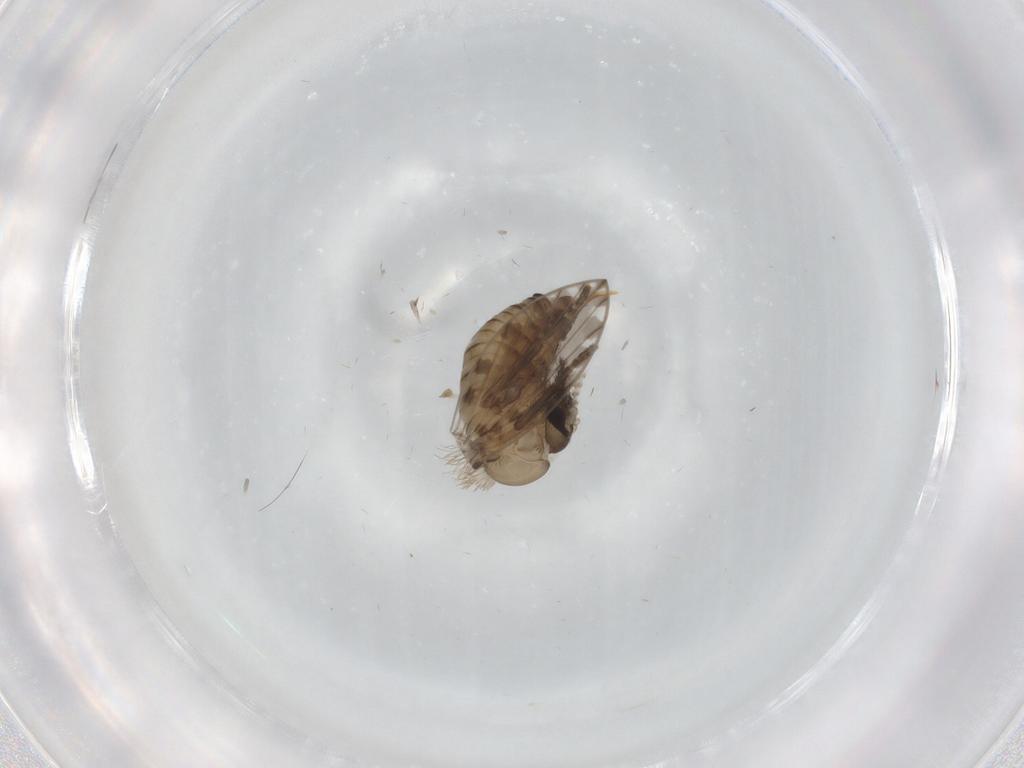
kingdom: Animalia
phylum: Arthropoda
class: Insecta
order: Diptera
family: Psychodidae
